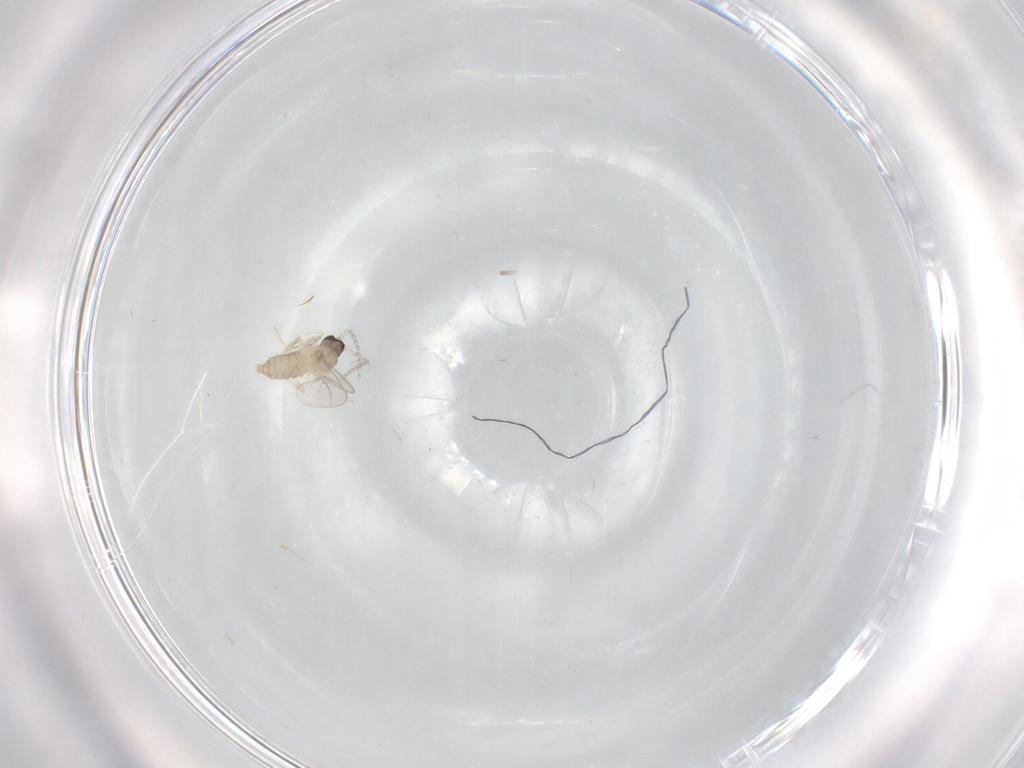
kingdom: Animalia
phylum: Arthropoda
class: Insecta
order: Diptera
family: Cecidomyiidae
